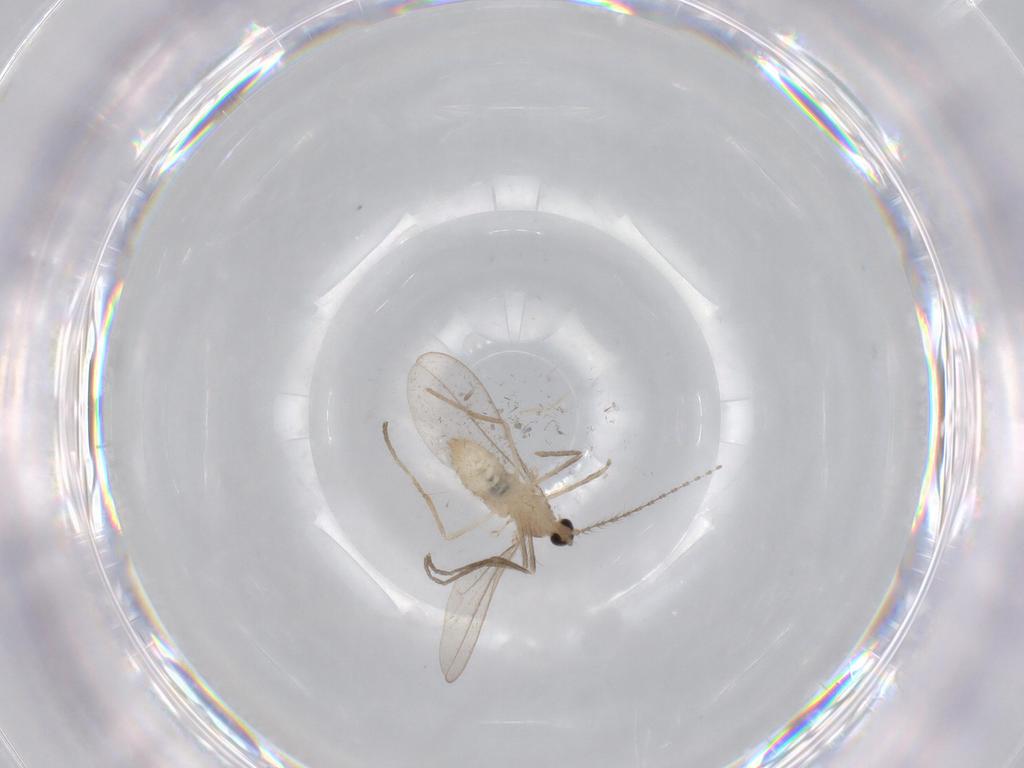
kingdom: Animalia
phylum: Arthropoda
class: Insecta
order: Diptera
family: Cecidomyiidae
